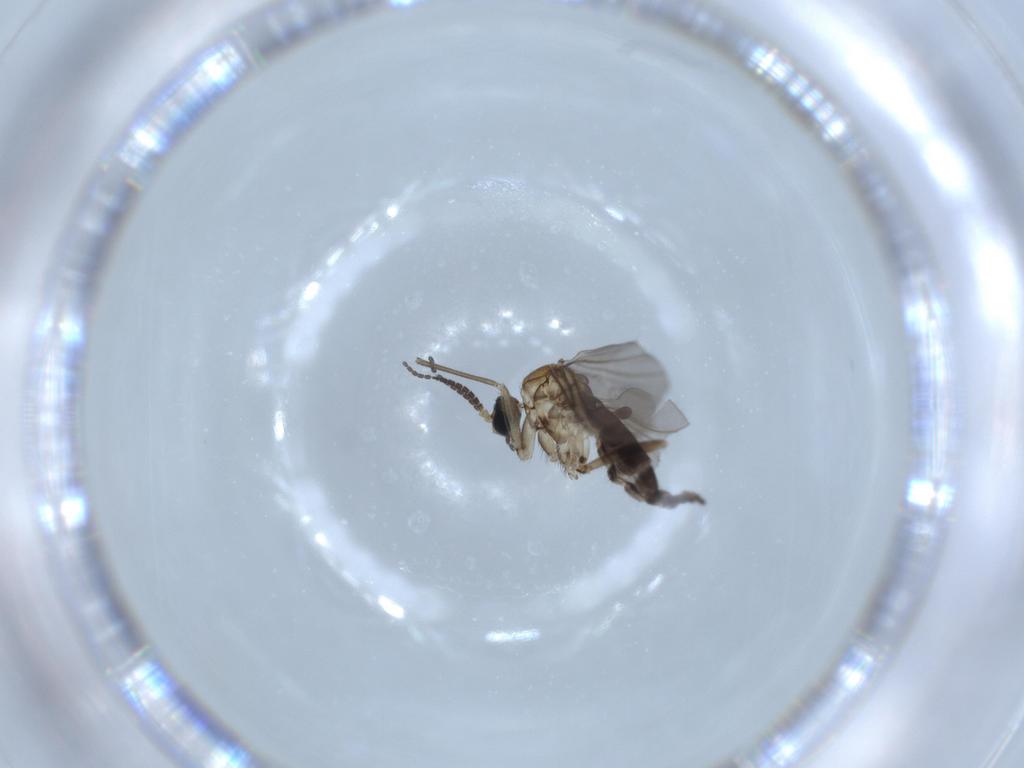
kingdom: Animalia
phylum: Arthropoda
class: Insecta
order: Diptera
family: Sciaridae
